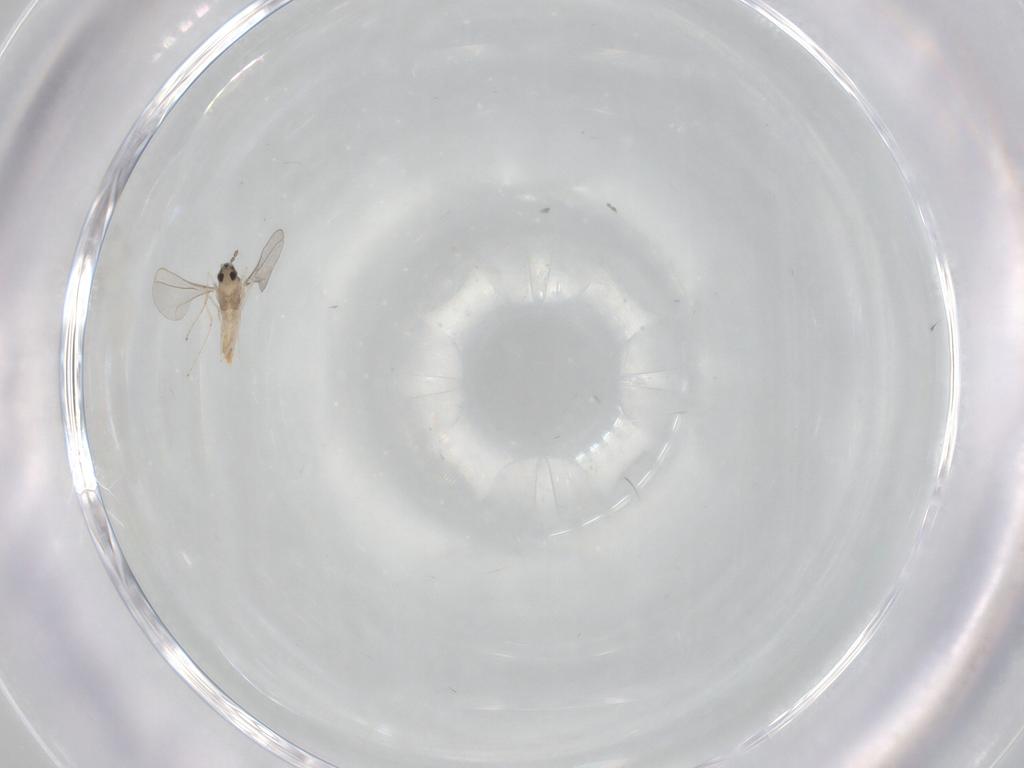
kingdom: Animalia
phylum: Arthropoda
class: Insecta
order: Diptera
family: Cecidomyiidae
